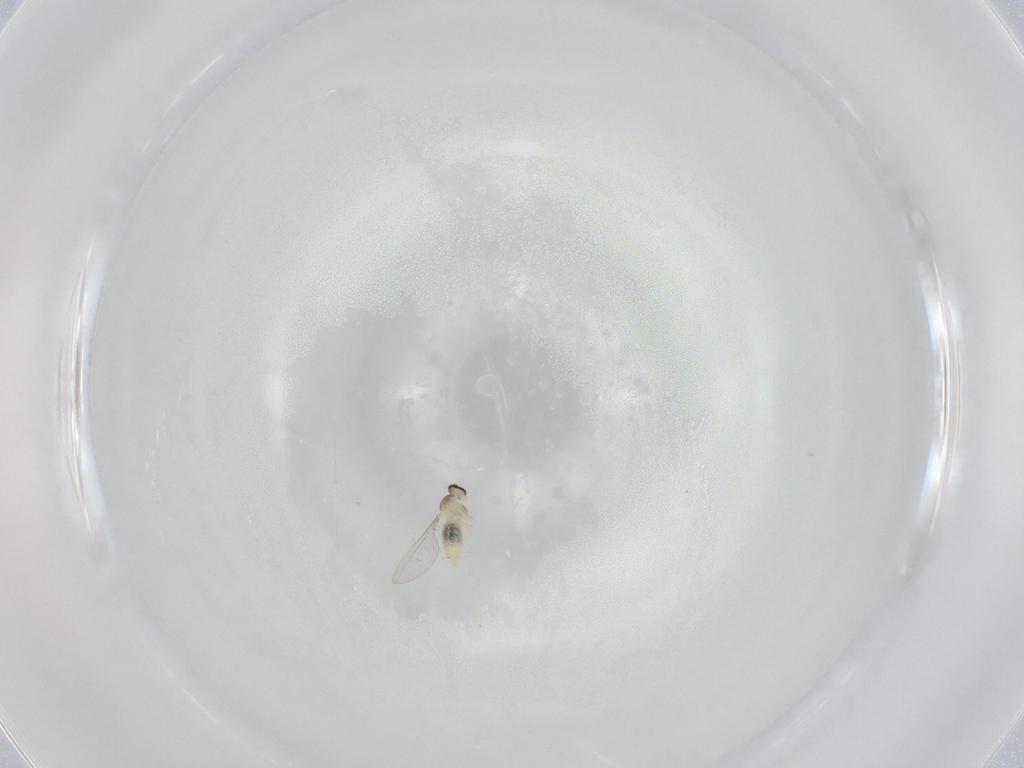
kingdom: Animalia
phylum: Arthropoda
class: Insecta
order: Diptera
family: Cecidomyiidae
